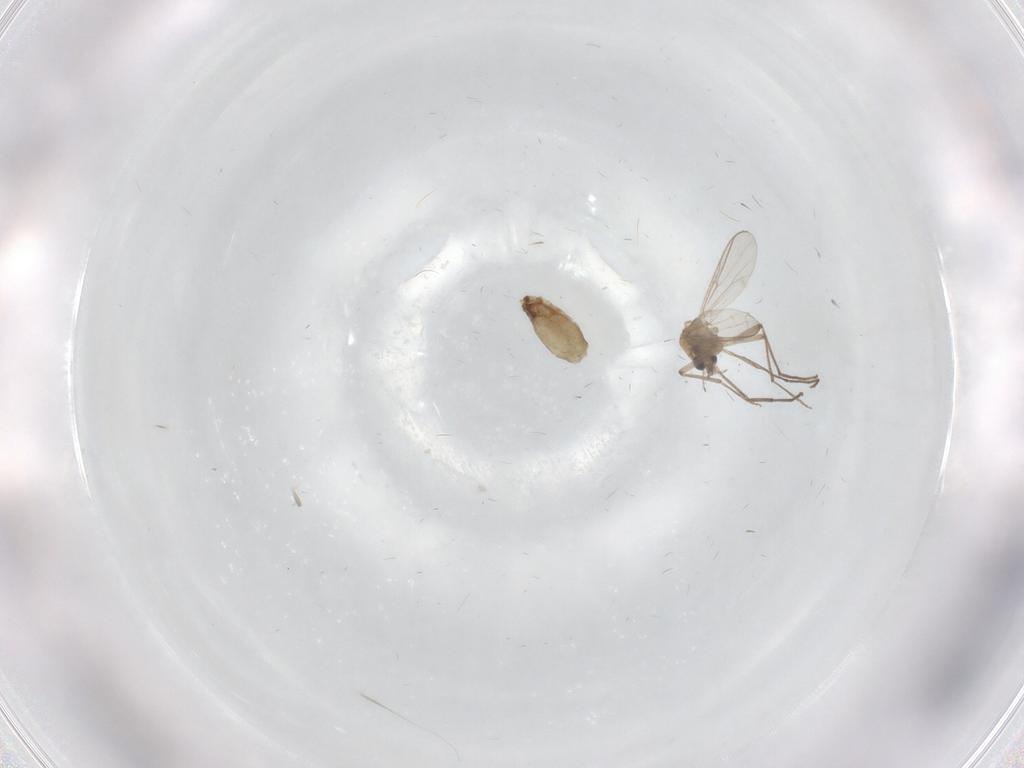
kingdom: Animalia
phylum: Arthropoda
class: Insecta
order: Diptera
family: Chironomidae
